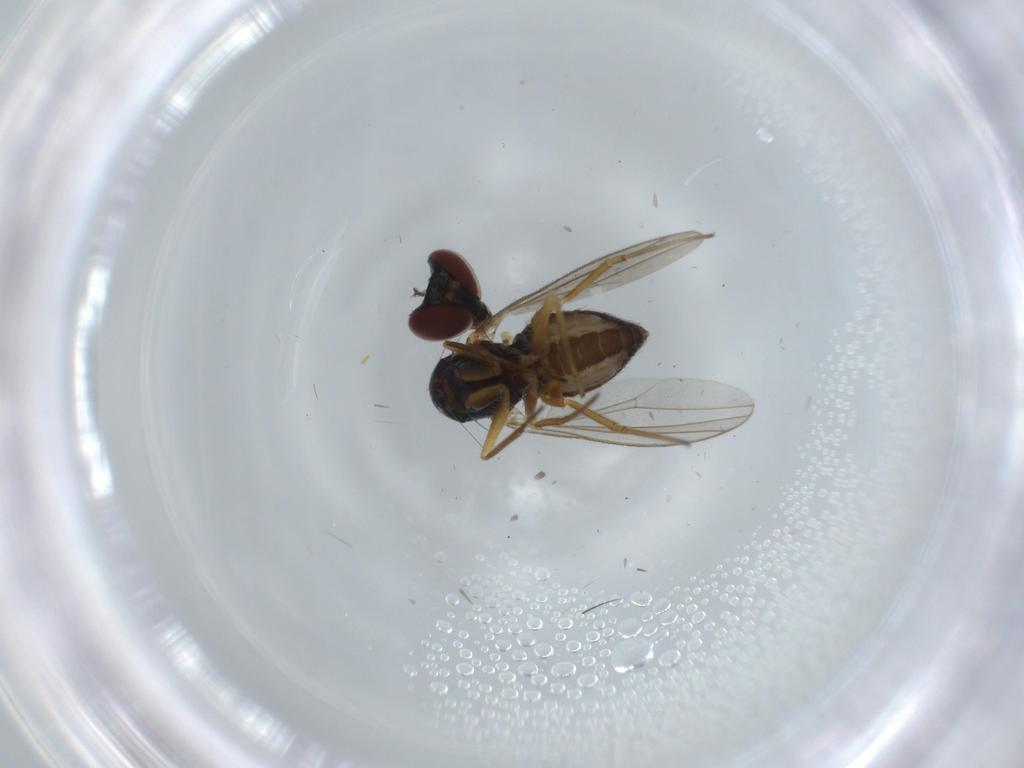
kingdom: Animalia
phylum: Arthropoda
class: Insecta
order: Diptera
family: Dolichopodidae
